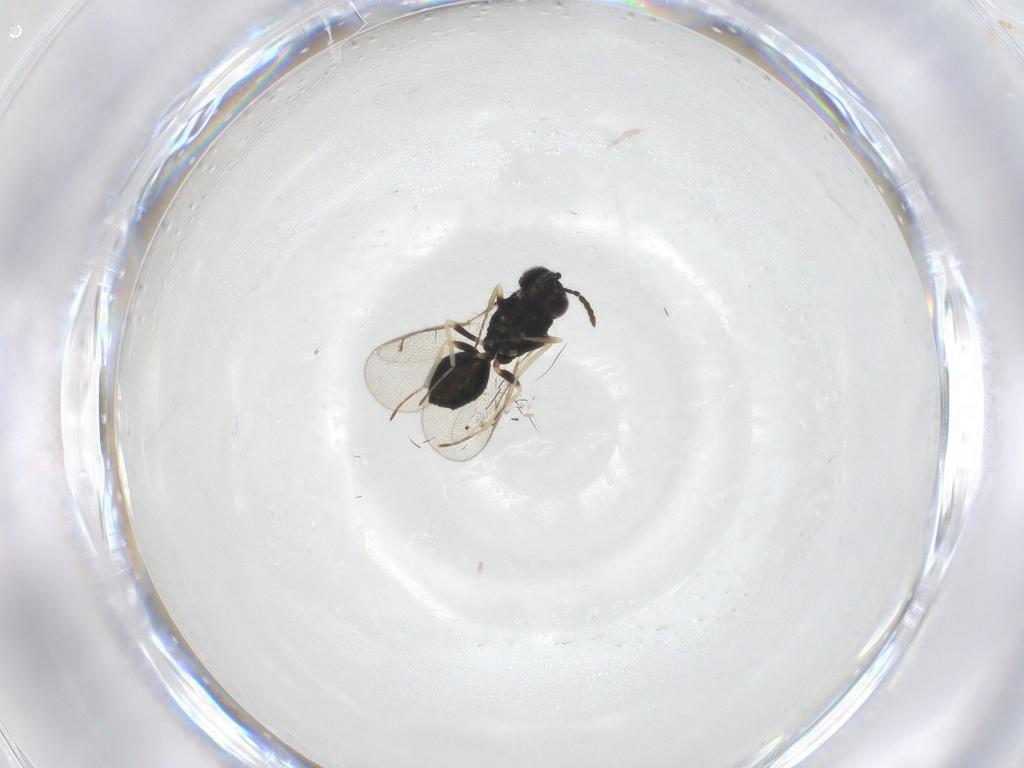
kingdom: Animalia
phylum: Arthropoda
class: Insecta
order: Hymenoptera
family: Eulophidae
